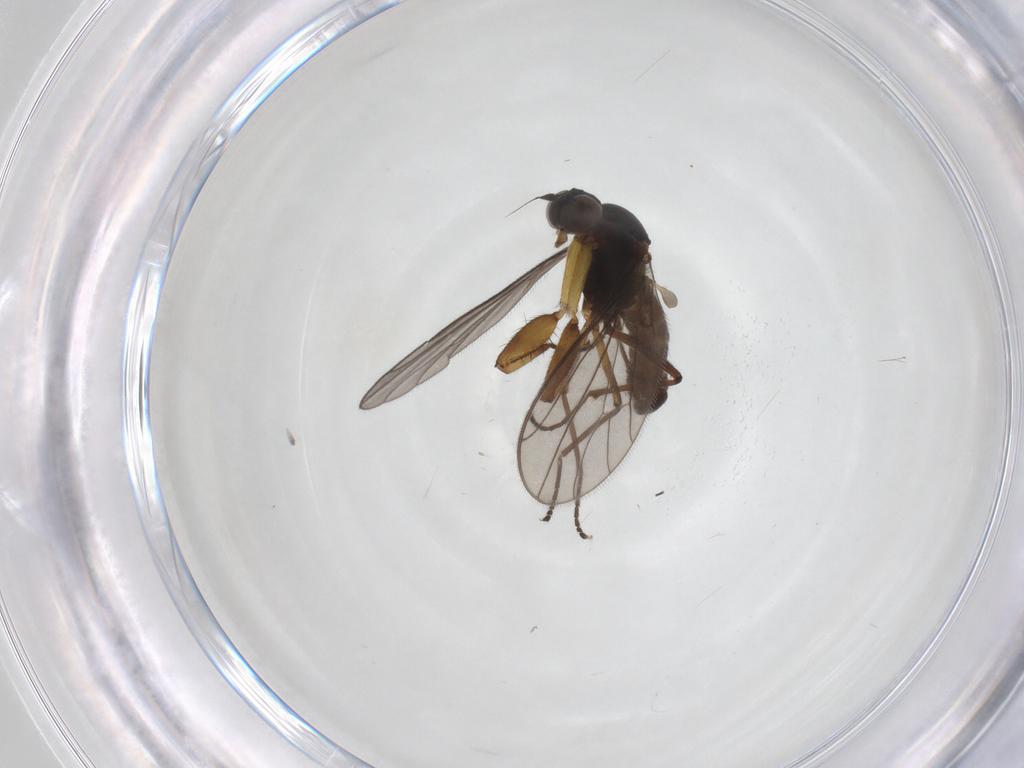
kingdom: Animalia
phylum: Arthropoda
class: Insecta
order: Diptera
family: Empididae
